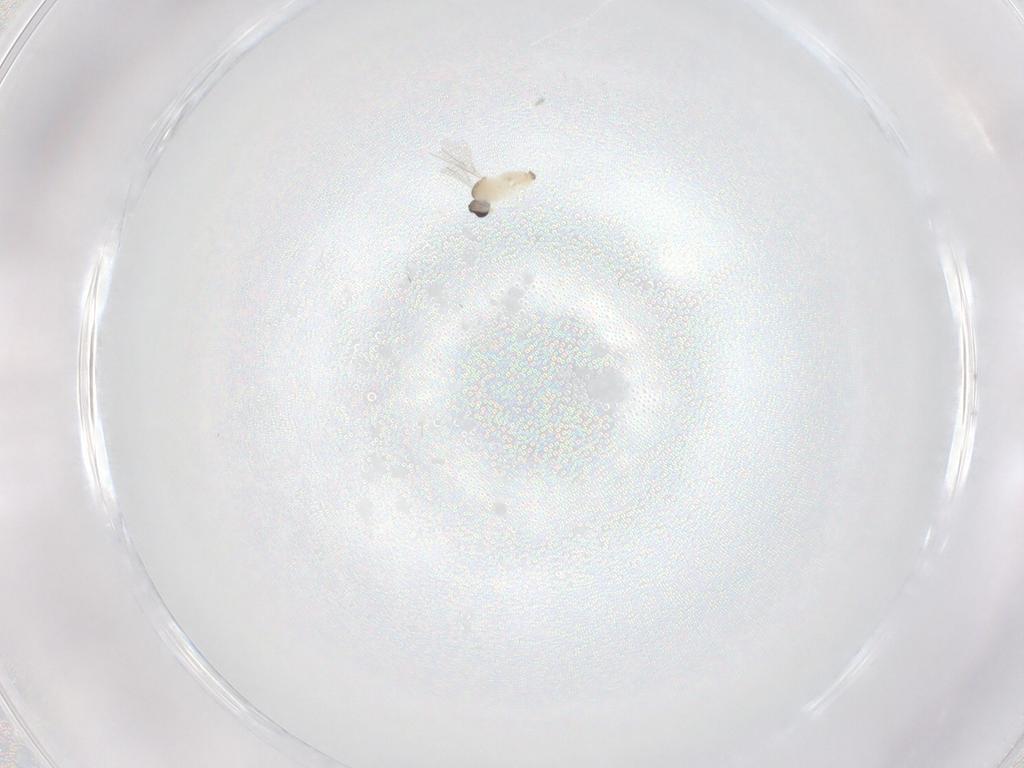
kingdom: Animalia
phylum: Arthropoda
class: Insecta
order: Diptera
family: Cecidomyiidae
